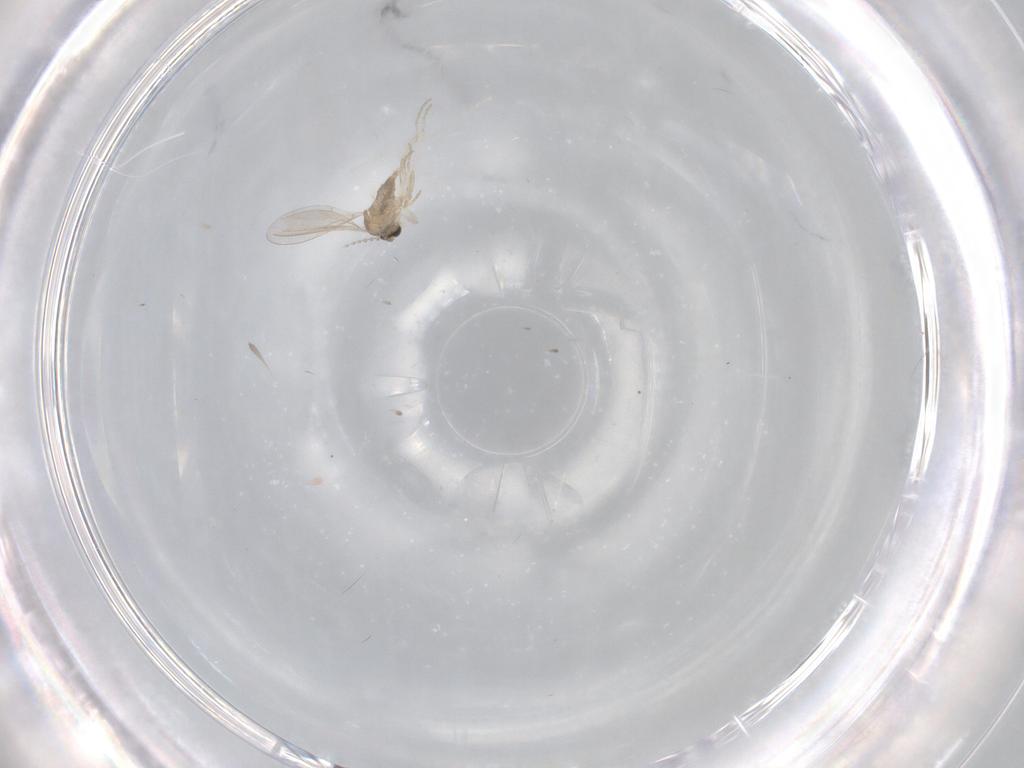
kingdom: Animalia
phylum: Arthropoda
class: Insecta
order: Diptera
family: Cecidomyiidae
